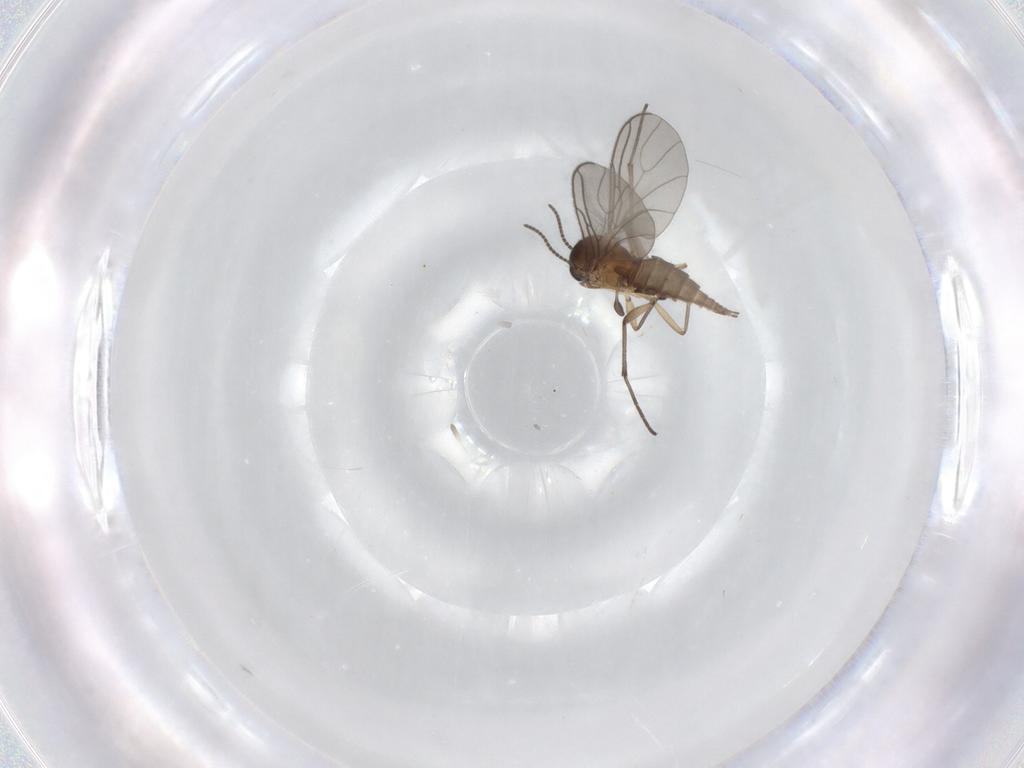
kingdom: Animalia
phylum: Arthropoda
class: Insecta
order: Diptera
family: Sciaridae
